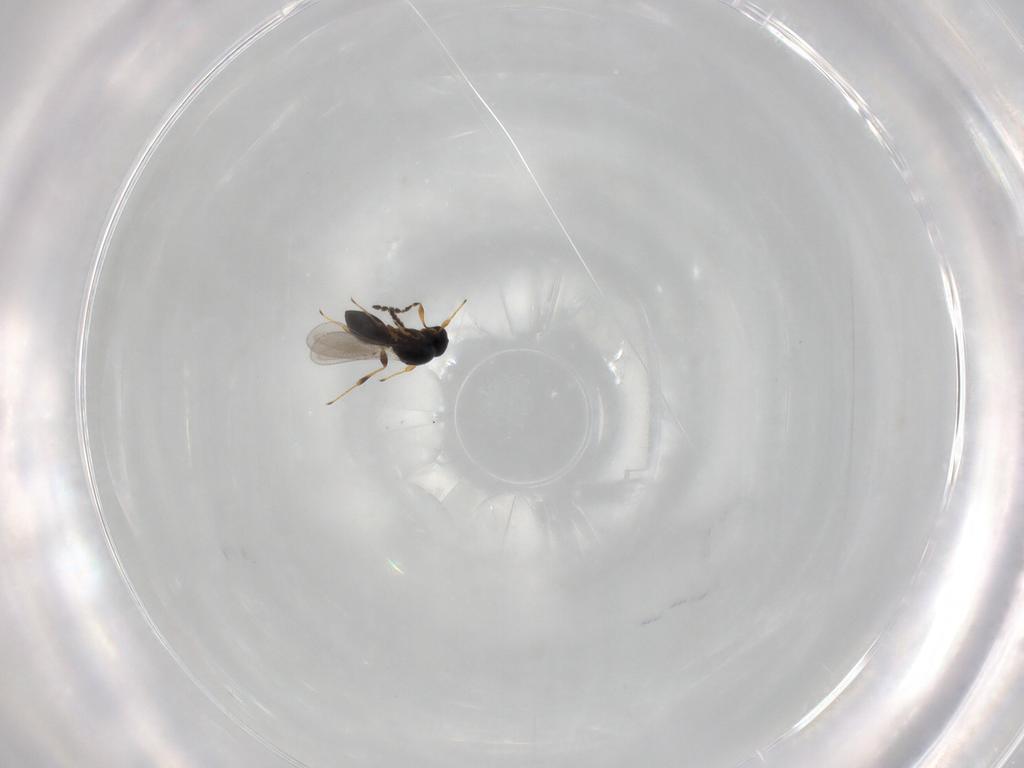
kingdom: Animalia
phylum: Arthropoda
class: Insecta
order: Hymenoptera
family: Platygastridae
